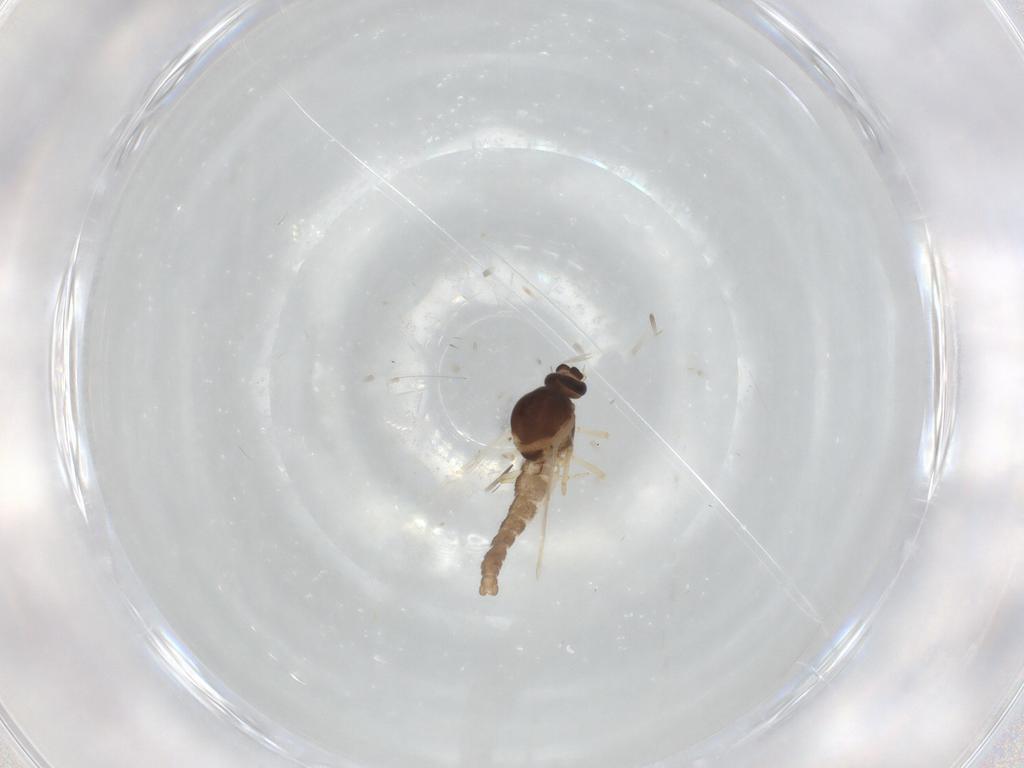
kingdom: Animalia
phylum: Arthropoda
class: Insecta
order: Diptera
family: Ceratopogonidae
